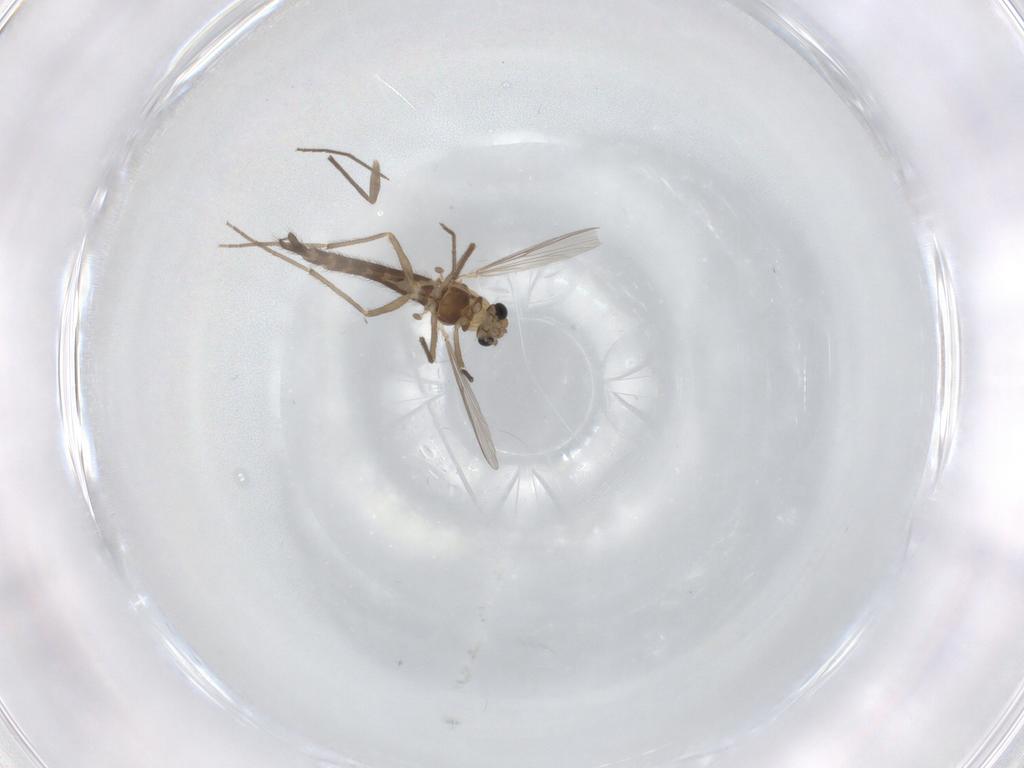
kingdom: Animalia
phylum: Arthropoda
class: Insecta
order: Diptera
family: Chironomidae
